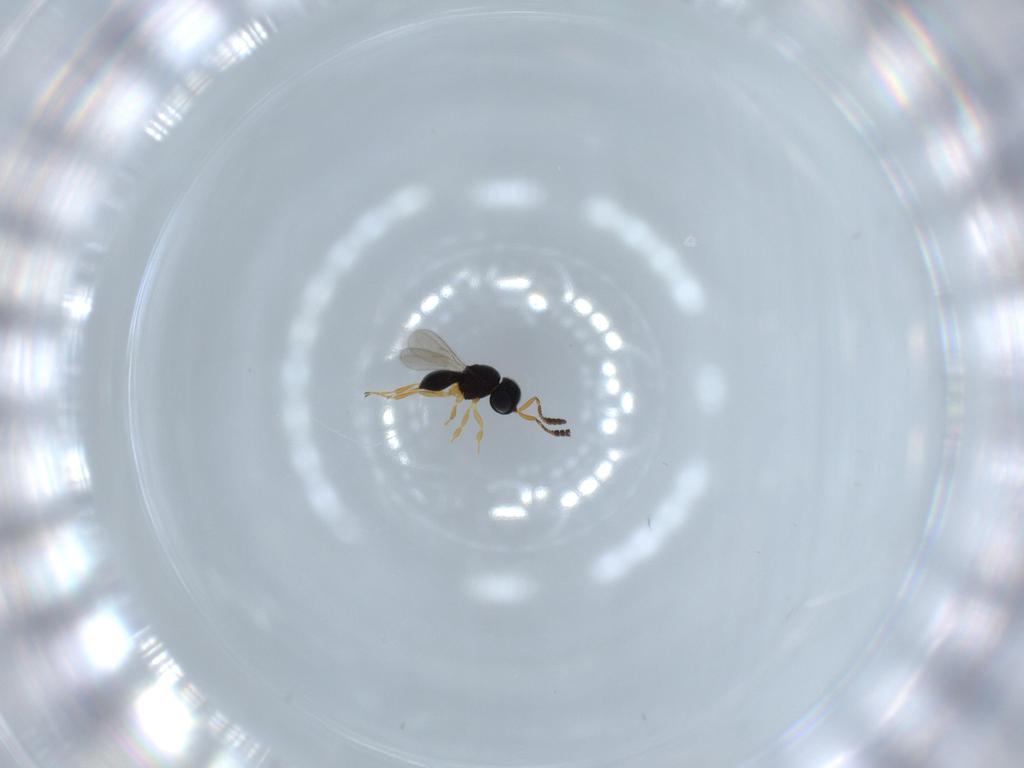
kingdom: Animalia
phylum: Arthropoda
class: Insecta
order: Hymenoptera
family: Scelionidae
